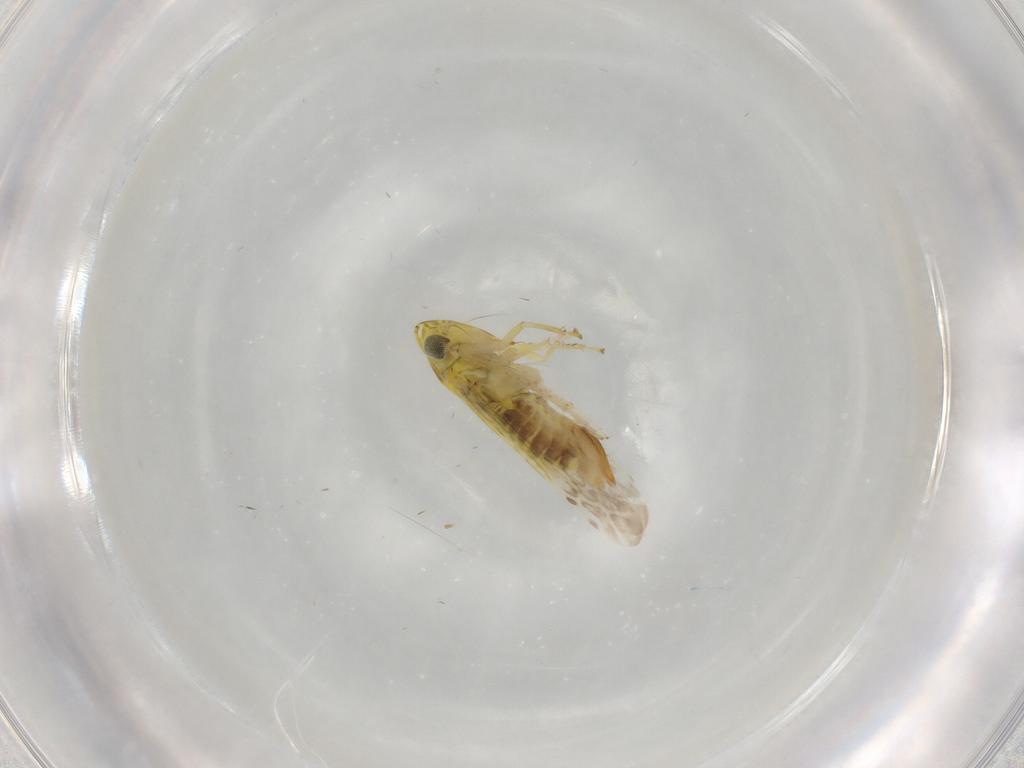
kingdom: Animalia
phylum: Arthropoda
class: Insecta
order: Hemiptera
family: Cicadellidae
